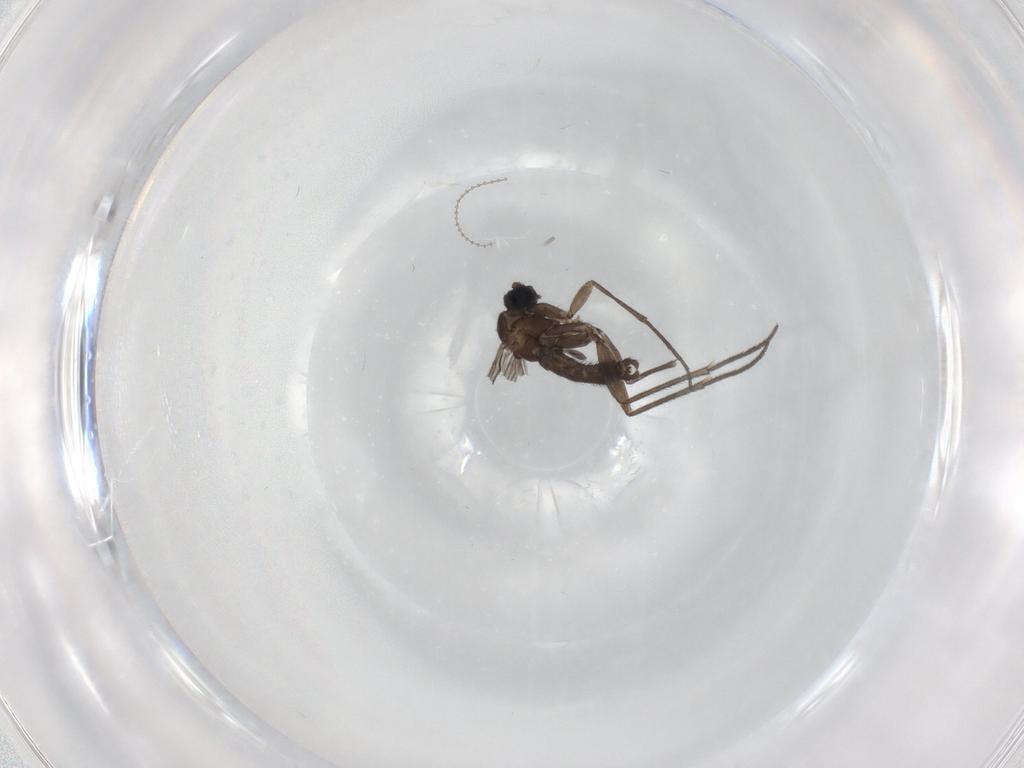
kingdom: Animalia
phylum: Arthropoda
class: Insecta
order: Diptera
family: Sciaridae
